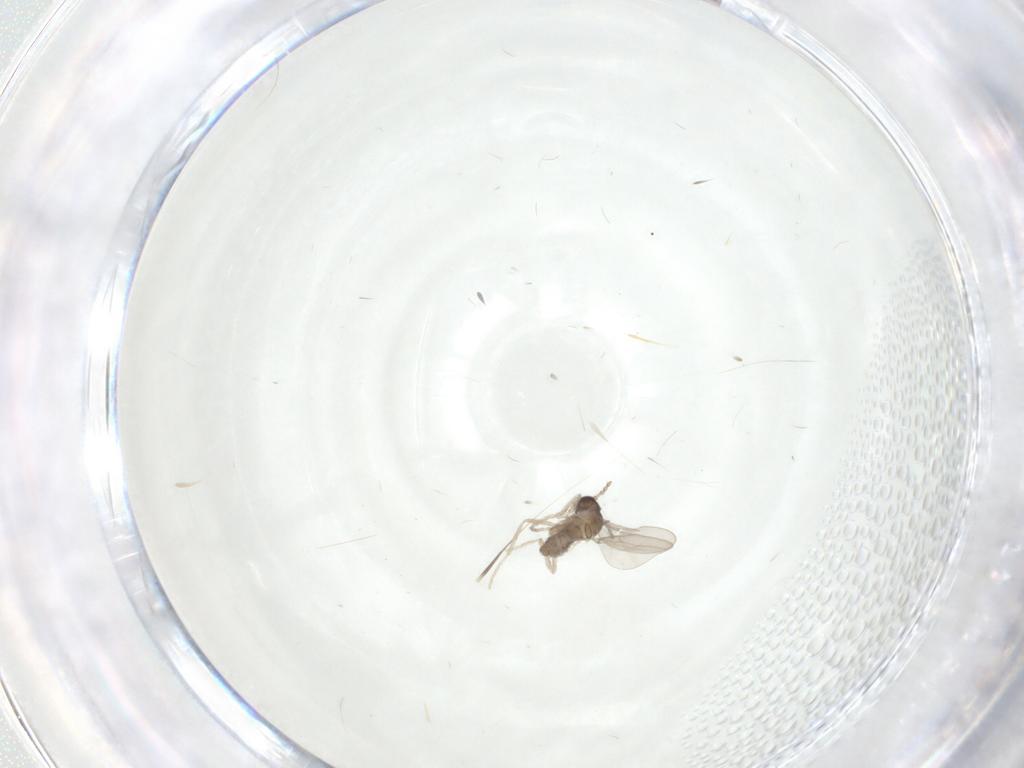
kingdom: Animalia
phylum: Arthropoda
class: Insecta
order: Diptera
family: Cecidomyiidae
